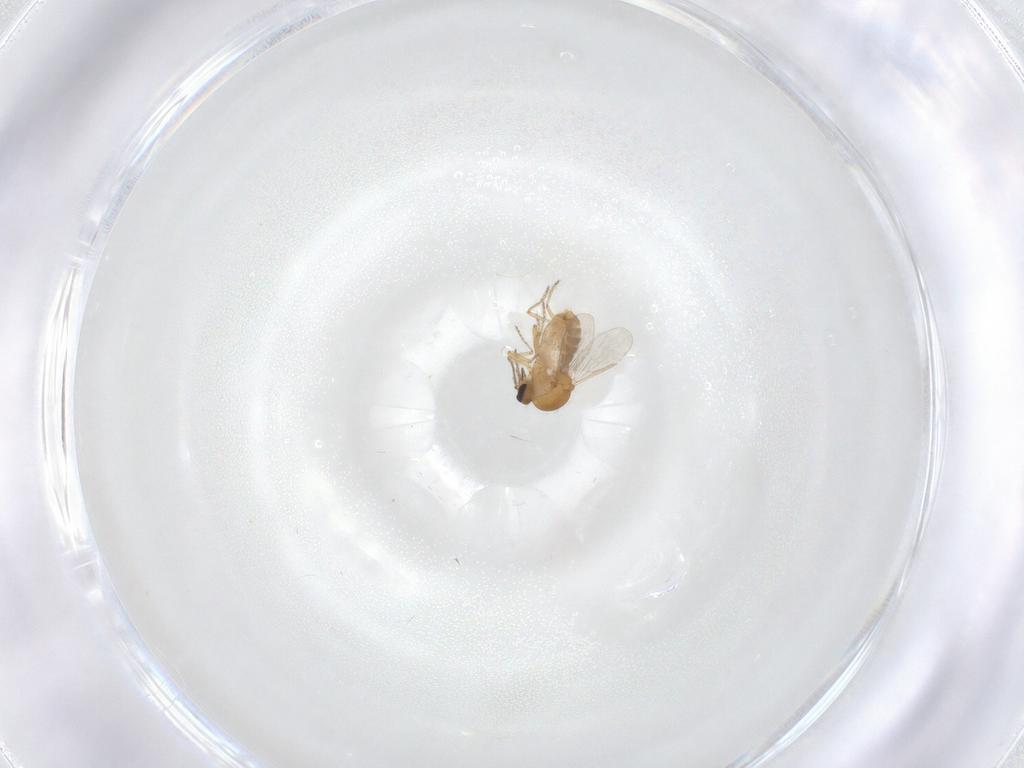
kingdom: Animalia
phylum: Arthropoda
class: Insecta
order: Diptera
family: Ceratopogonidae
